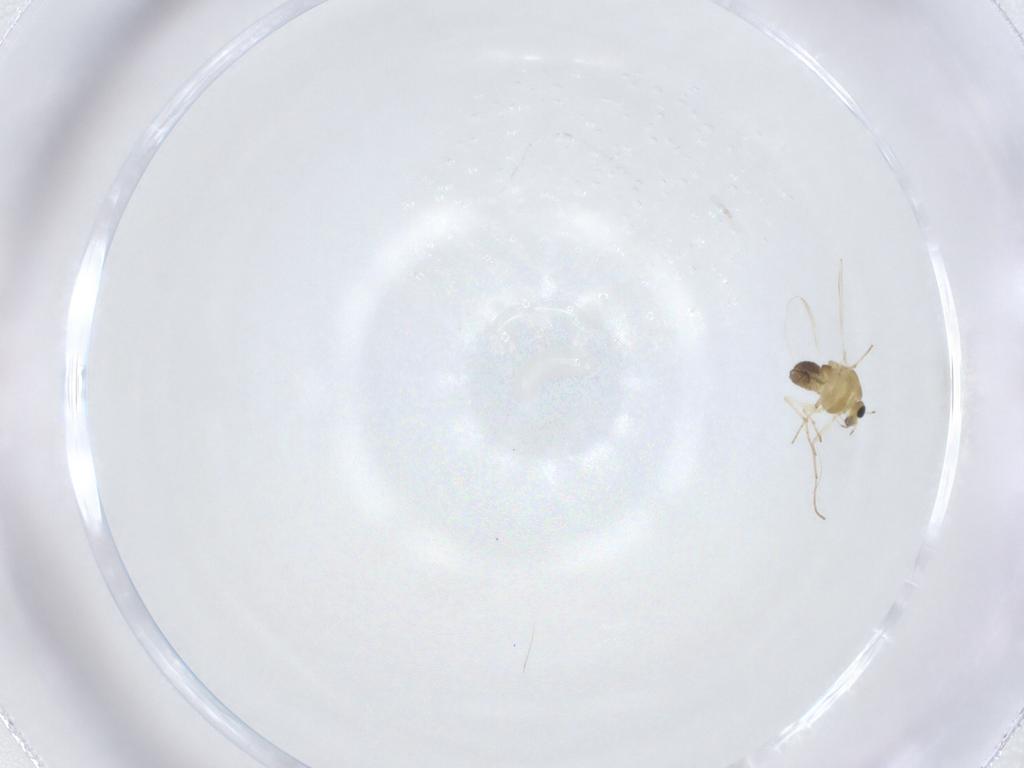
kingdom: Animalia
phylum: Arthropoda
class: Insecta
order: Diptera
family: Chironomidae
